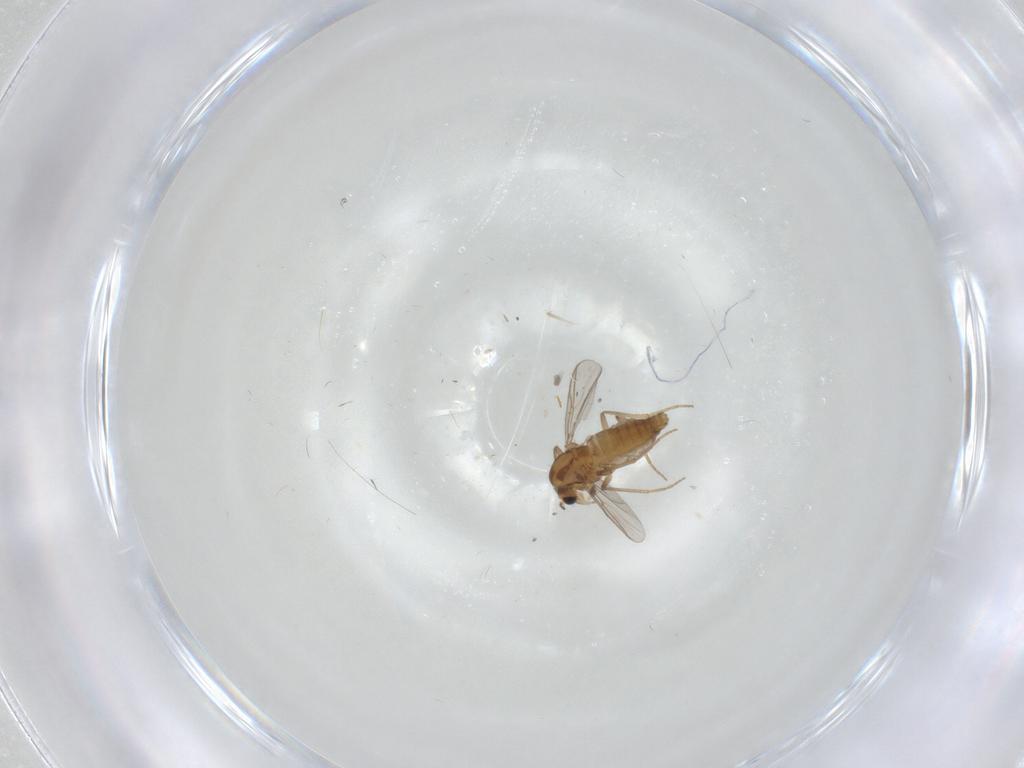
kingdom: Animalia
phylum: Arthropoda
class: Insecta
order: Diptera
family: Chironomidae
